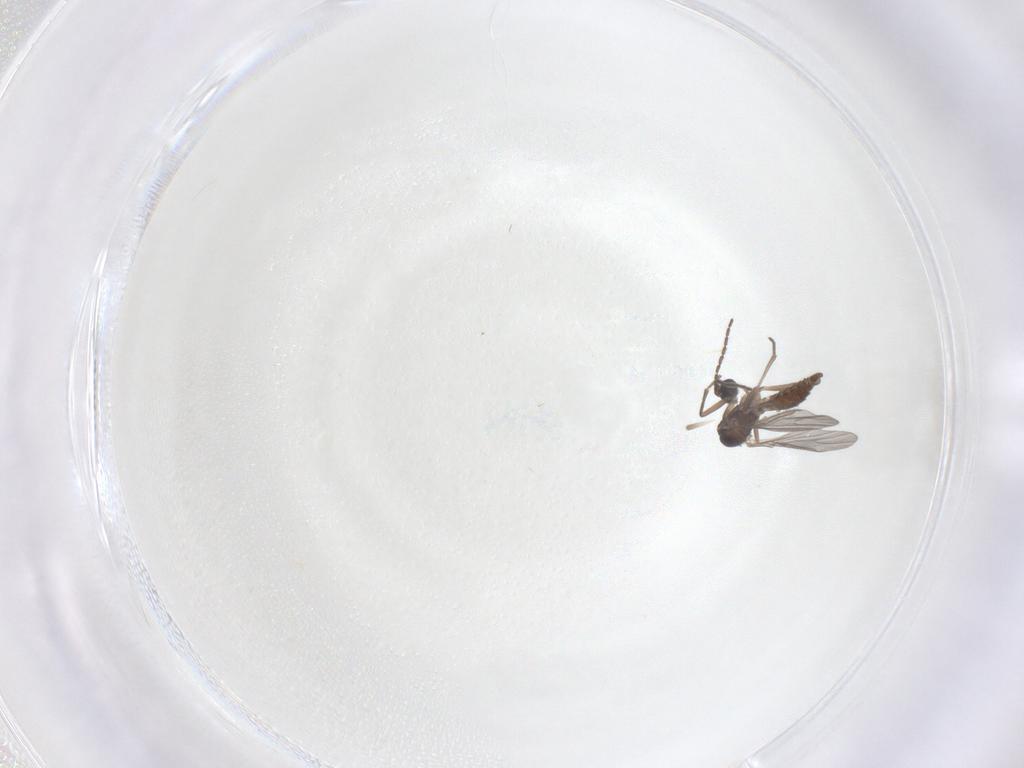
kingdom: Animalia
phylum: Arthropoda
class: Insecta
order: Diptera
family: Sciaridae
